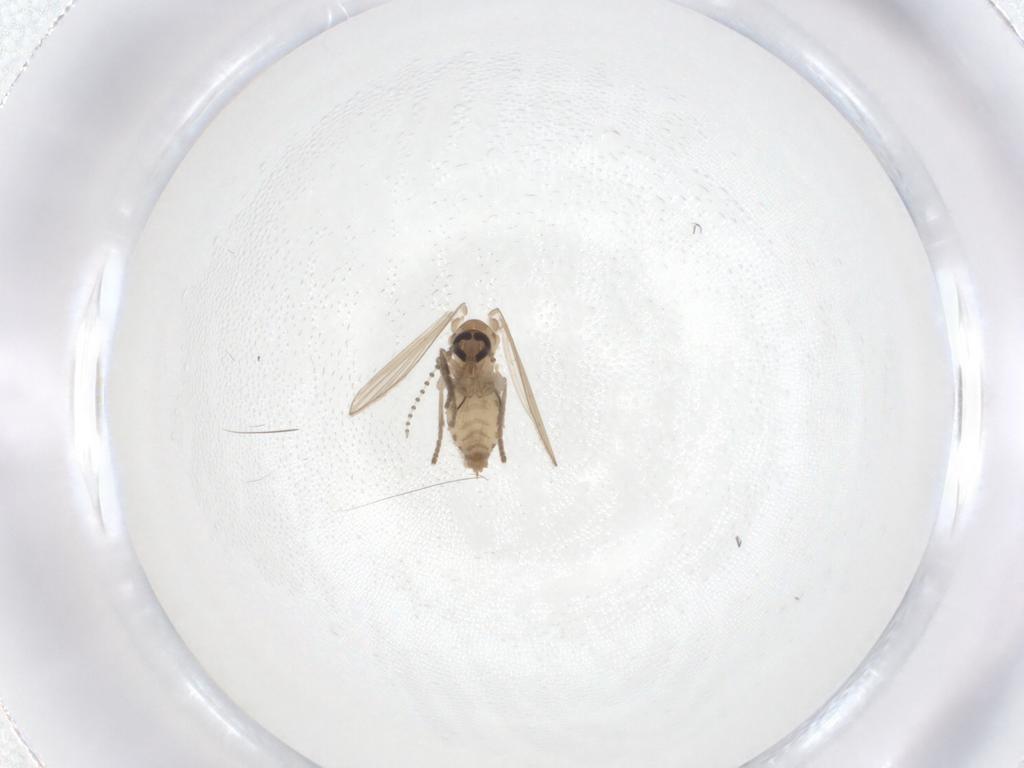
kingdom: Animalia
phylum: Arthropoda
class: Insecta
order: Diptera
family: Psychodidae
